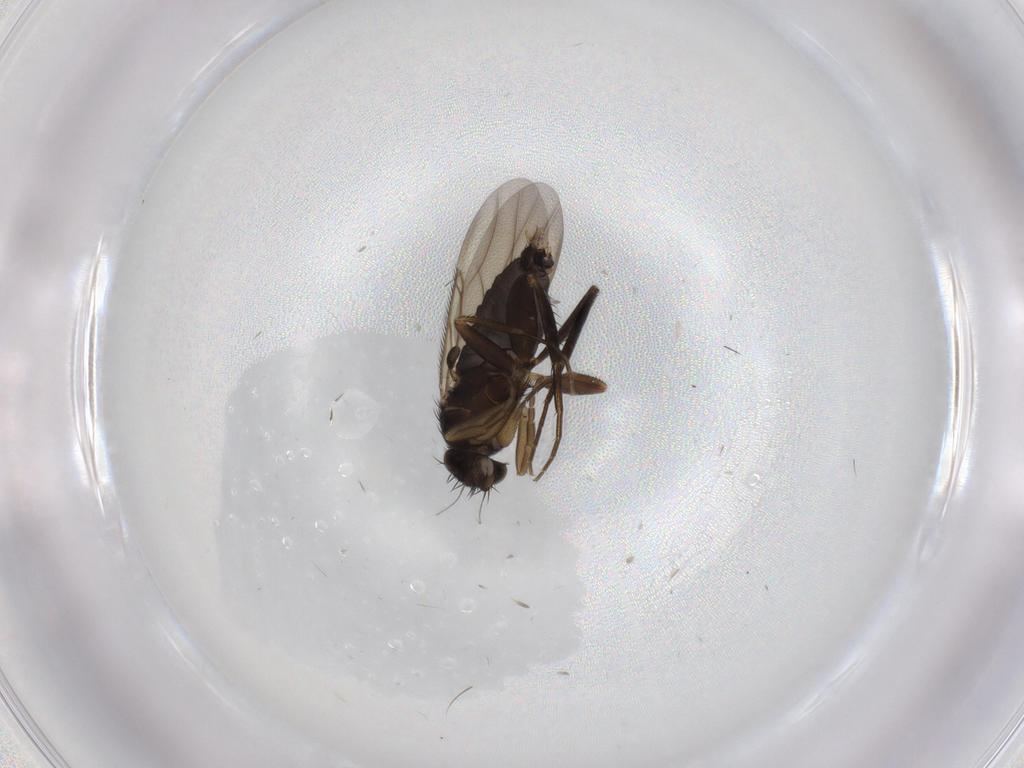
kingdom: Animalia
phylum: Arthropoda
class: Insecta
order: Diptera
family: Phoridae
